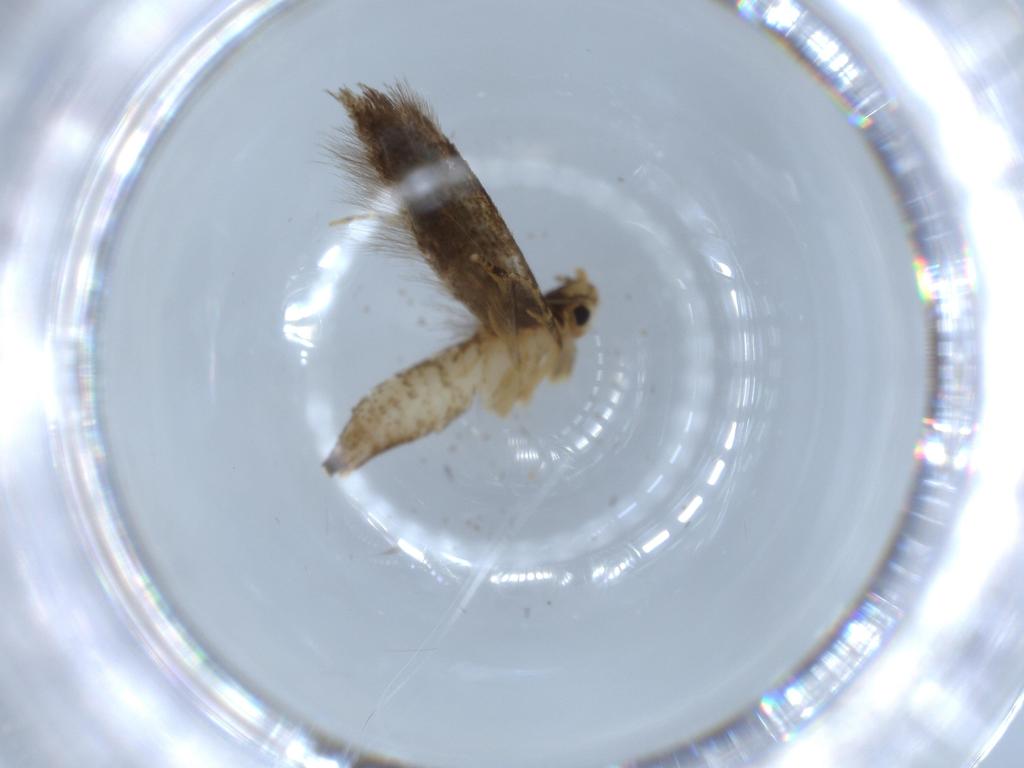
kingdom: Animalia
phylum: Arthropoda
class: Insecta
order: Lepidoptera
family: Tineidae
